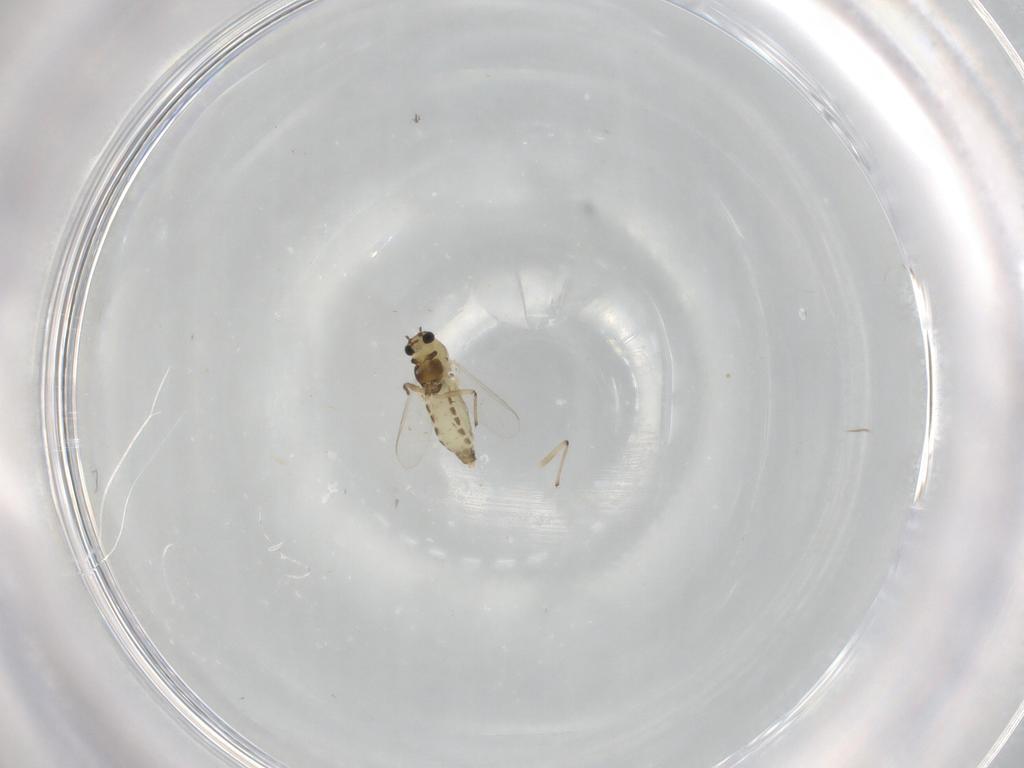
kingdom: Animalia
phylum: Arthropoda
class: Insecta
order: Diptera
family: Chironomidae
